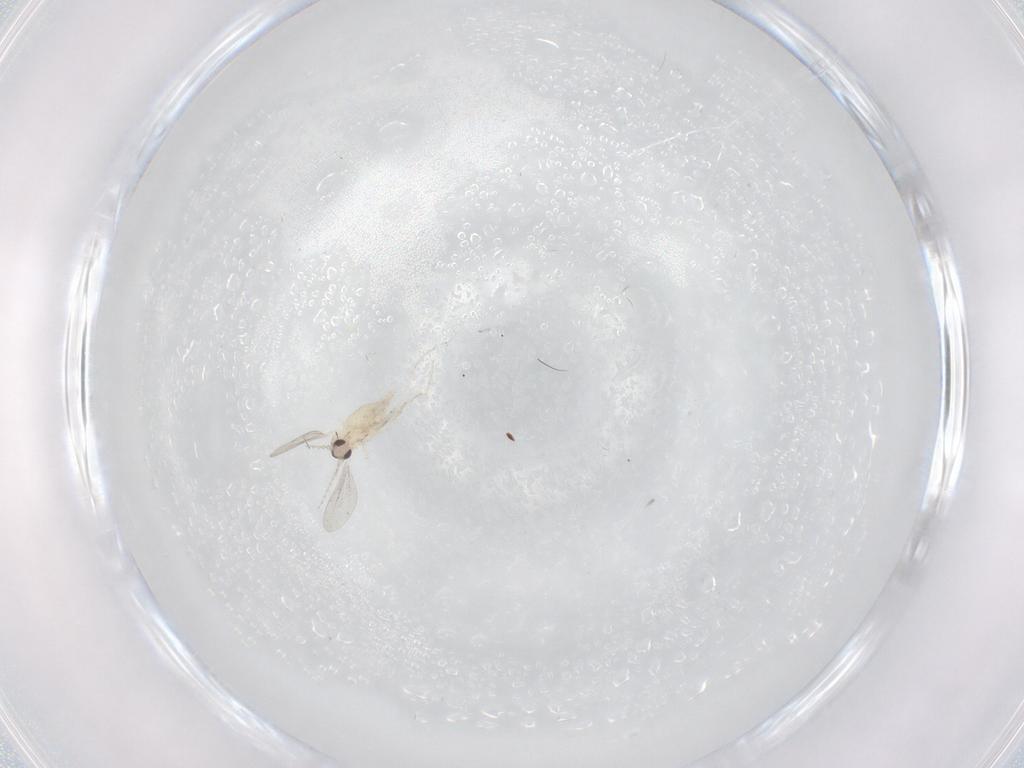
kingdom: Animalia
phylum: Arthropoda
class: Insecta
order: Diptera
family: Cecidomyiidae
